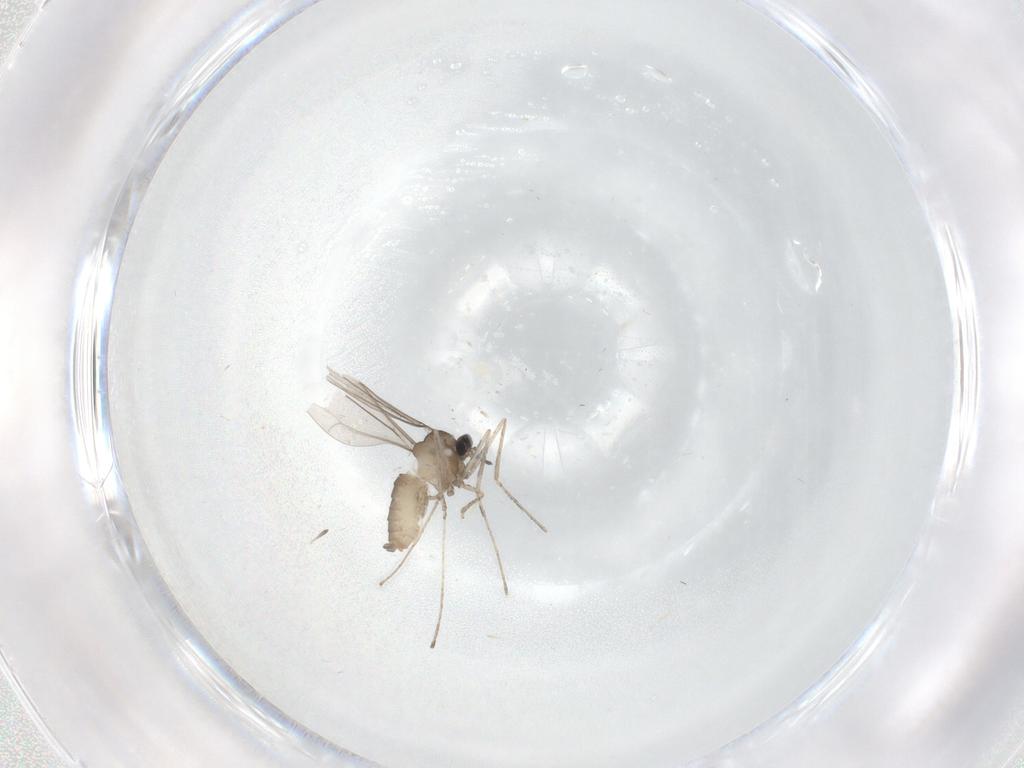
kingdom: Animalia
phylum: Arthropoda
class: Insecta
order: Diptera
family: Cecidomyiidae
